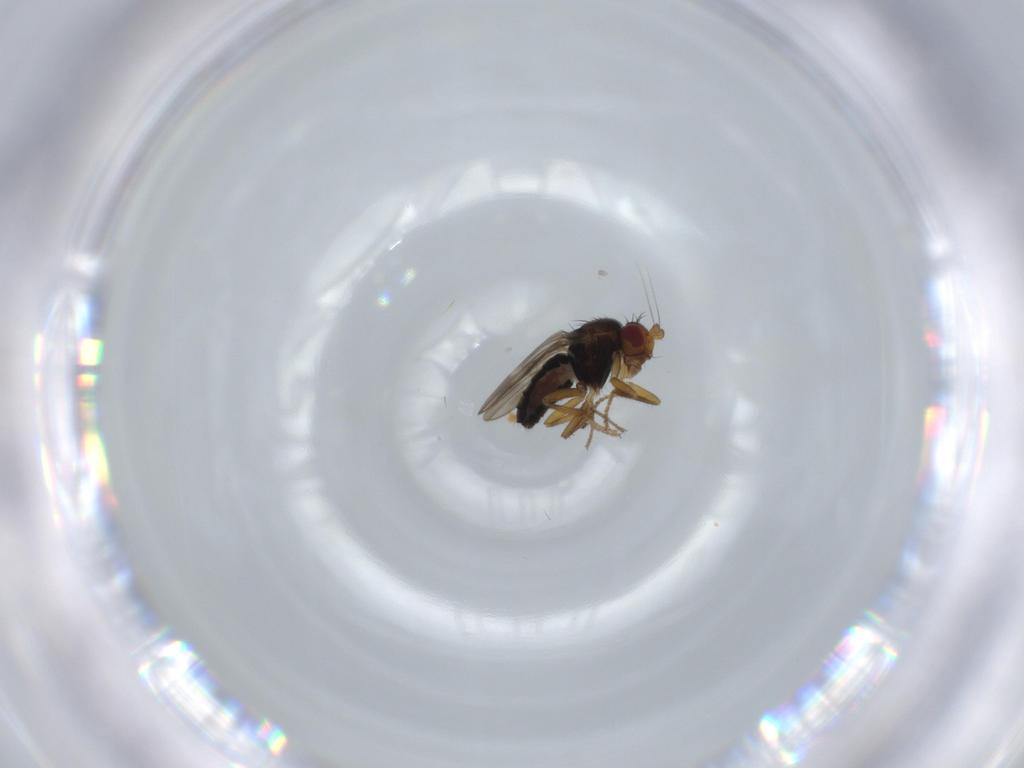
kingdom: Animalia
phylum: Arthropoda
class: Insecta
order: Diptera
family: Sphaeroceridae
